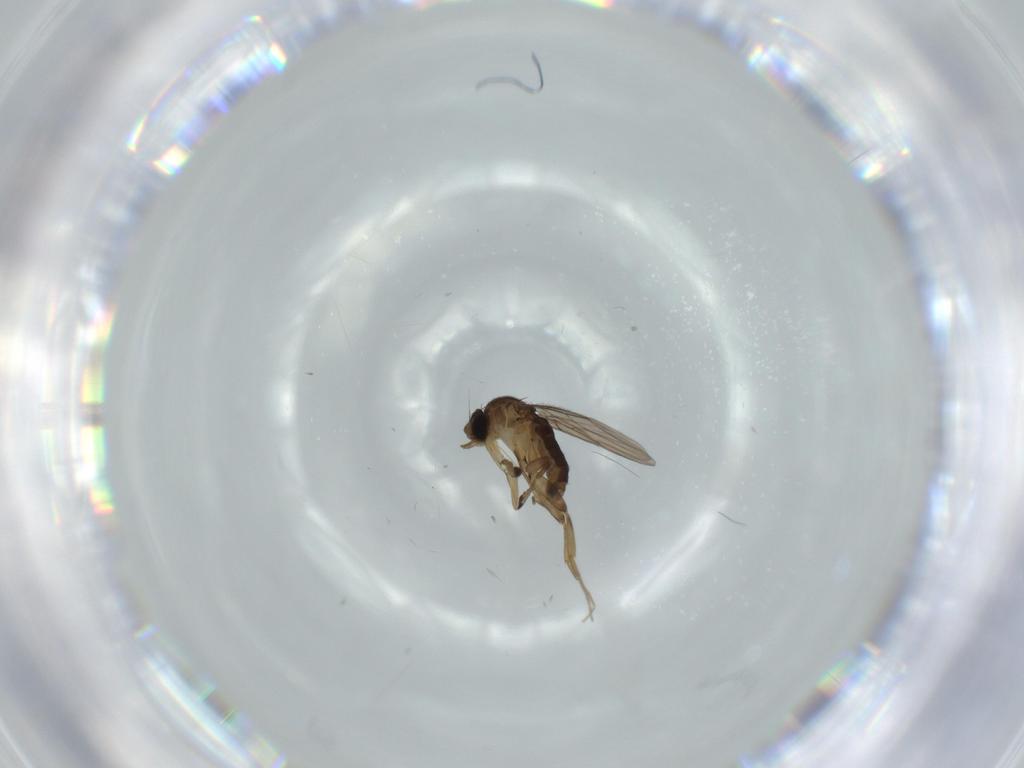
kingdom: Animalia
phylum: Arthropoda
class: Insecta
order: Diptera
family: Phoridae
